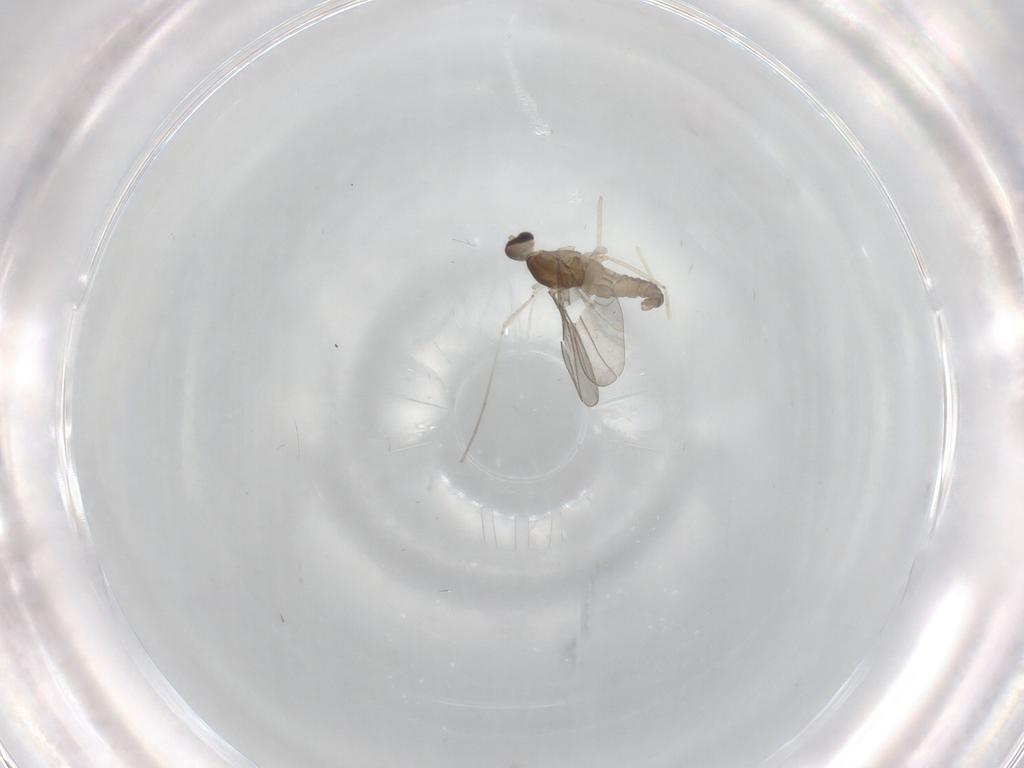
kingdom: Animalia
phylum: Arthropoda
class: Insecta
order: Diptera
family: Cecidomyiidae
